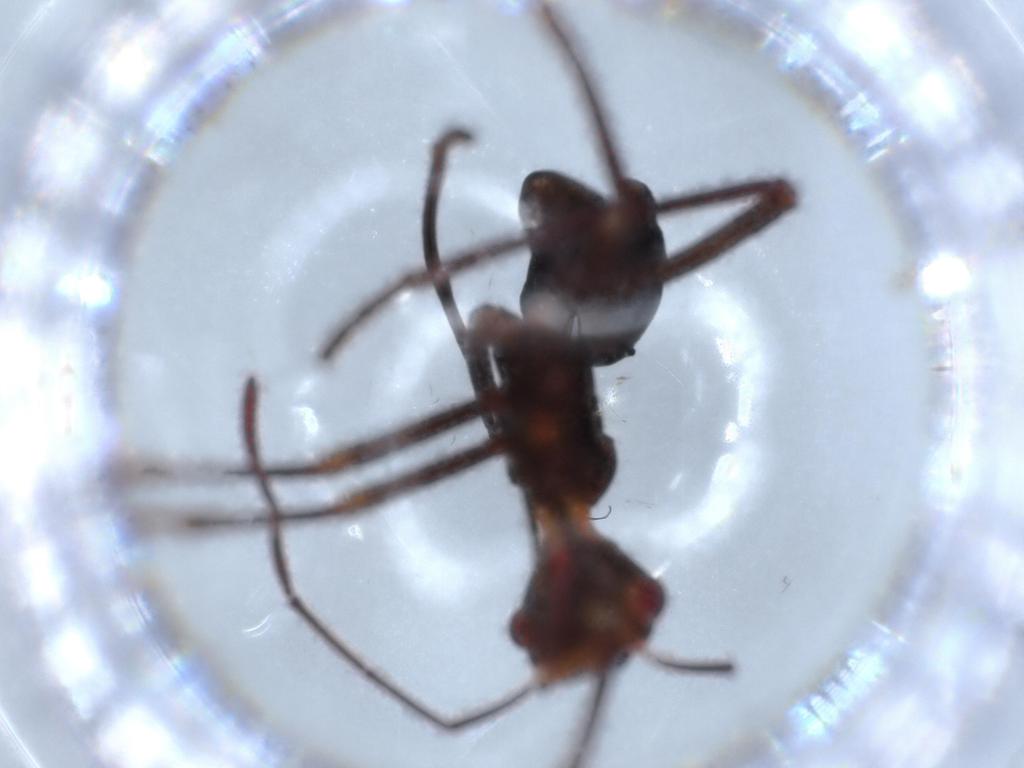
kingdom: Animalia
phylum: Arthropoda
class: Insecta
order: Hemiptera
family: Alydidae
